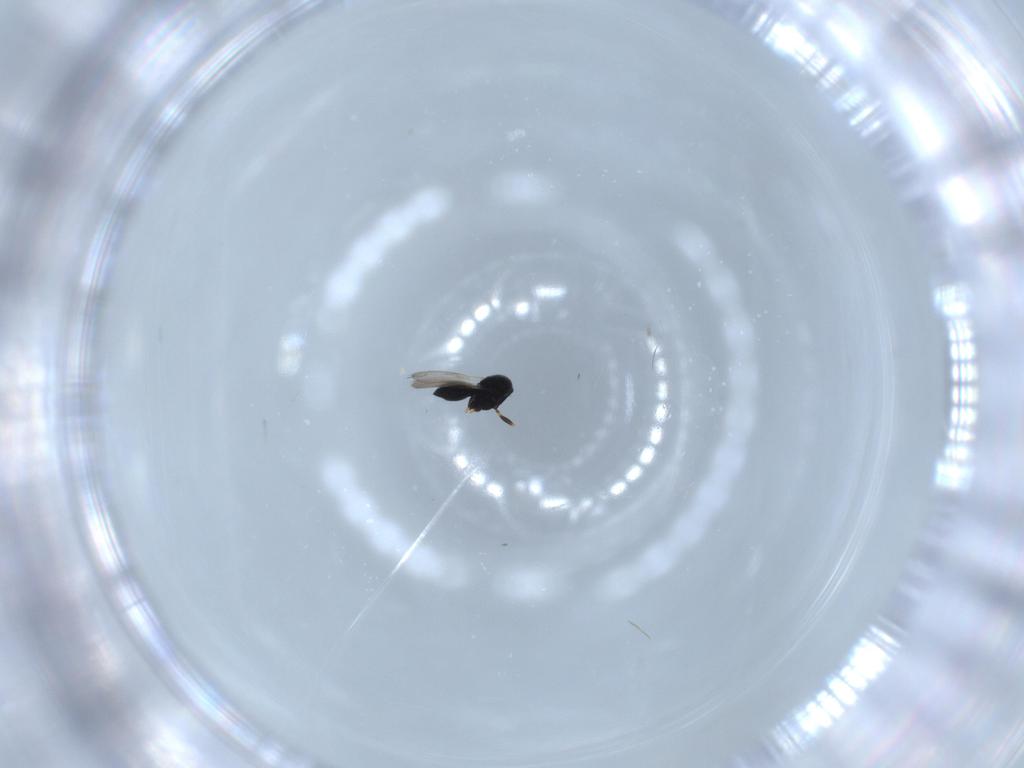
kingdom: Animalia
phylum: Arthropoda
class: Insecta
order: Hymenoptera
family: Scelionidae
